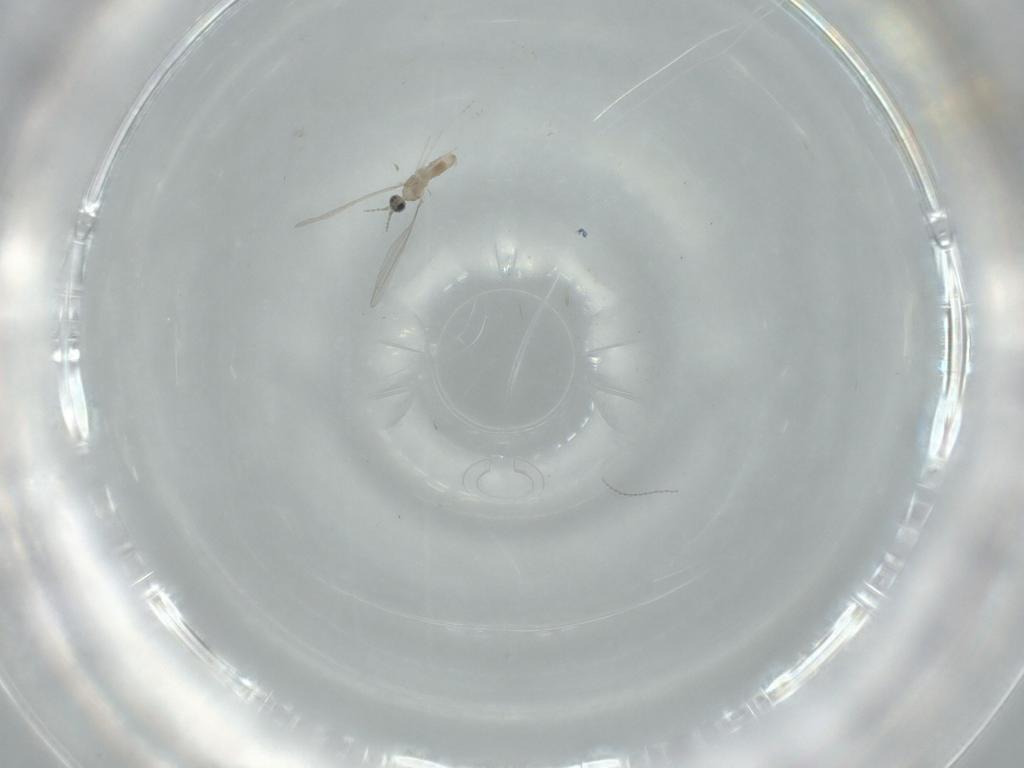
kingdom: Animalia
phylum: Arthropoda
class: Insecta
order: Diptera
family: Cecidomyiidae
